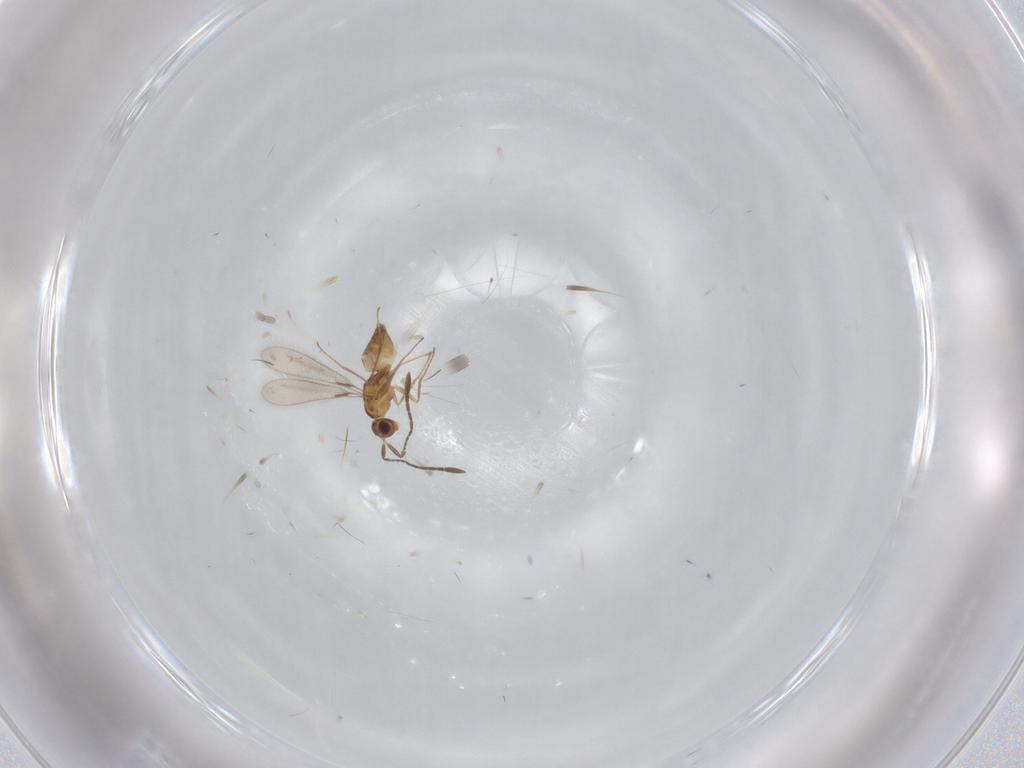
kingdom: Animalia
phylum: Arthropoda
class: Insecta
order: Hymenoptera
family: Mymaridae
